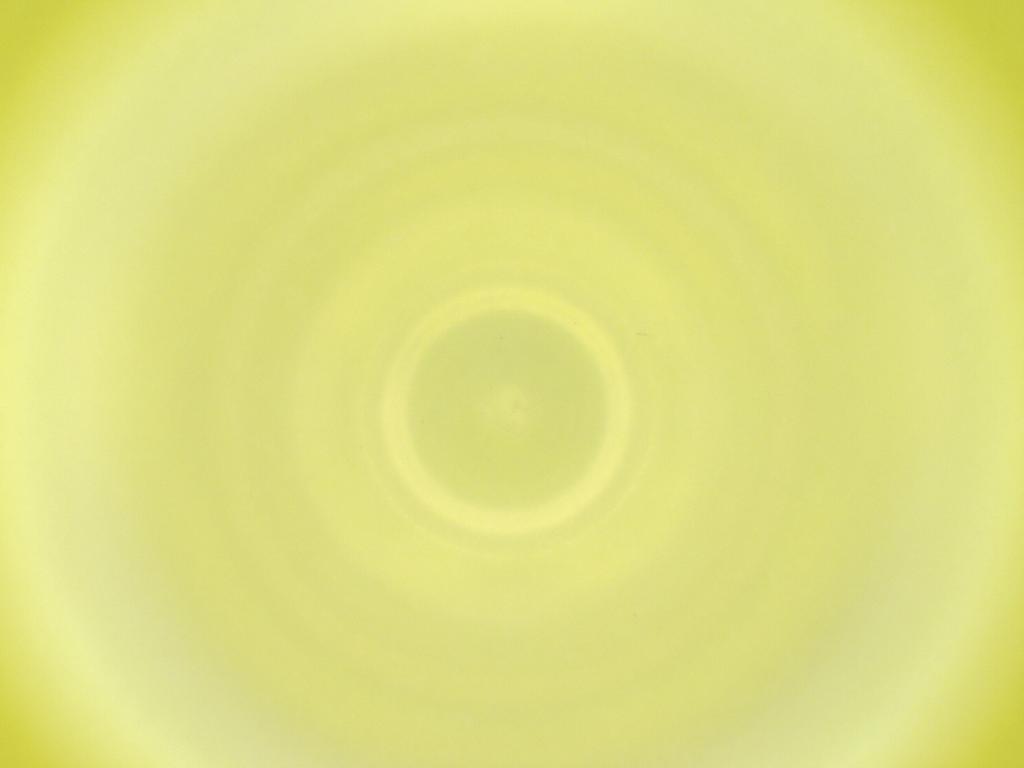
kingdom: Animalia
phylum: Arthropoda
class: Insecta
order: Diptera
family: Cecidomyiidae
